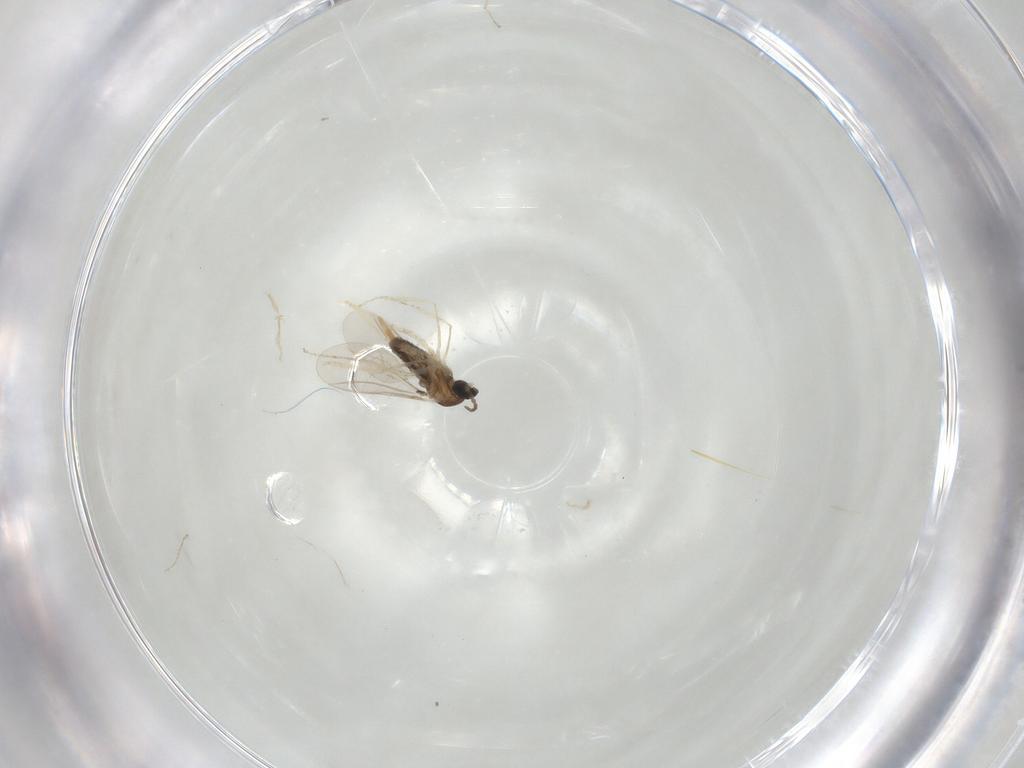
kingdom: Animalia
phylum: Arthropoda
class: Insecta
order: Diptera
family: Cecidomyiidae
